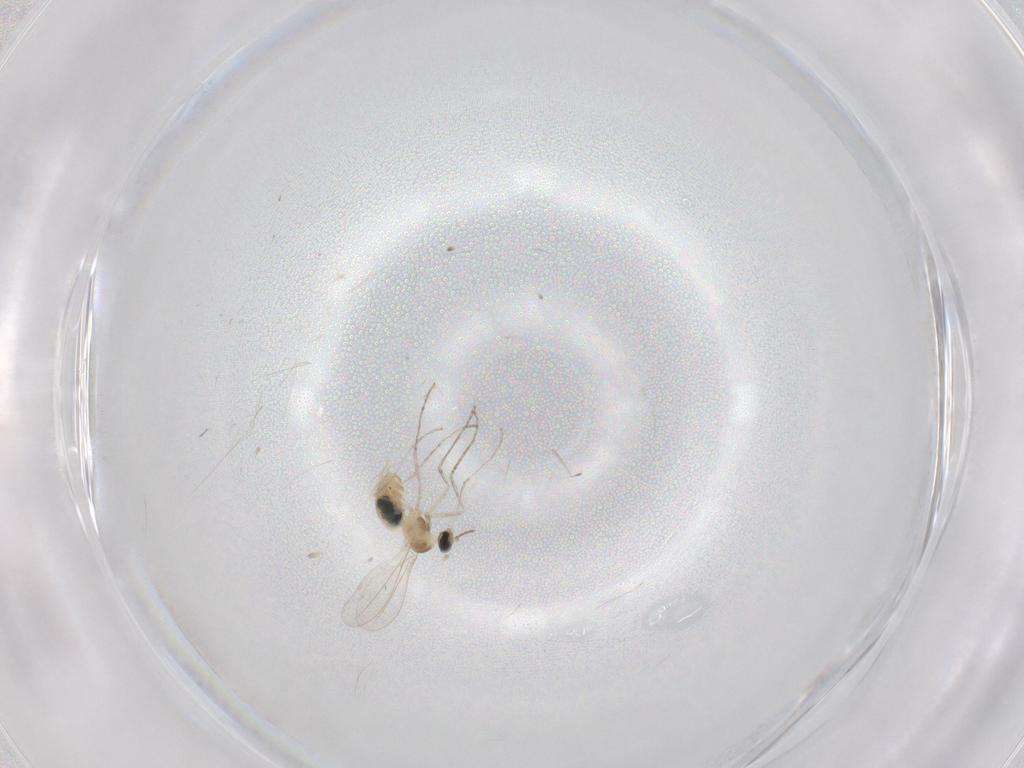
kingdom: Animalia
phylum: Arthropoda
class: Insecta
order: Diptera
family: Cecidomyiidae
